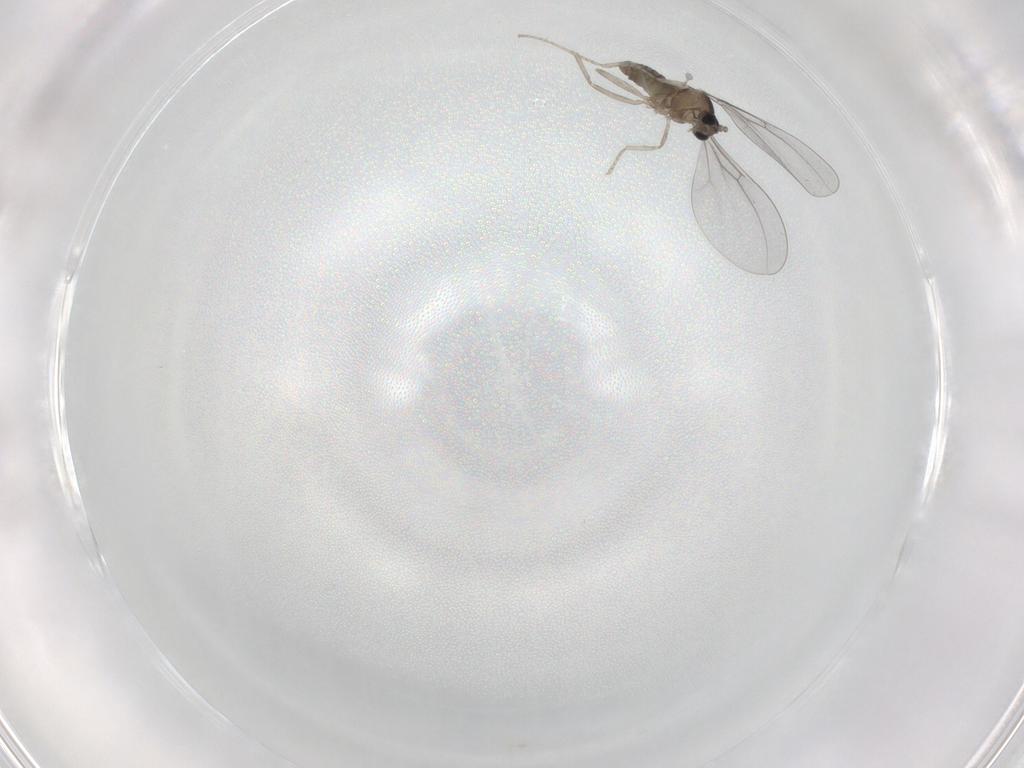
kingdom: Animalia
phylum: Arthropoda
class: Insecta
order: Diptera
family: Cecidomyiidae
